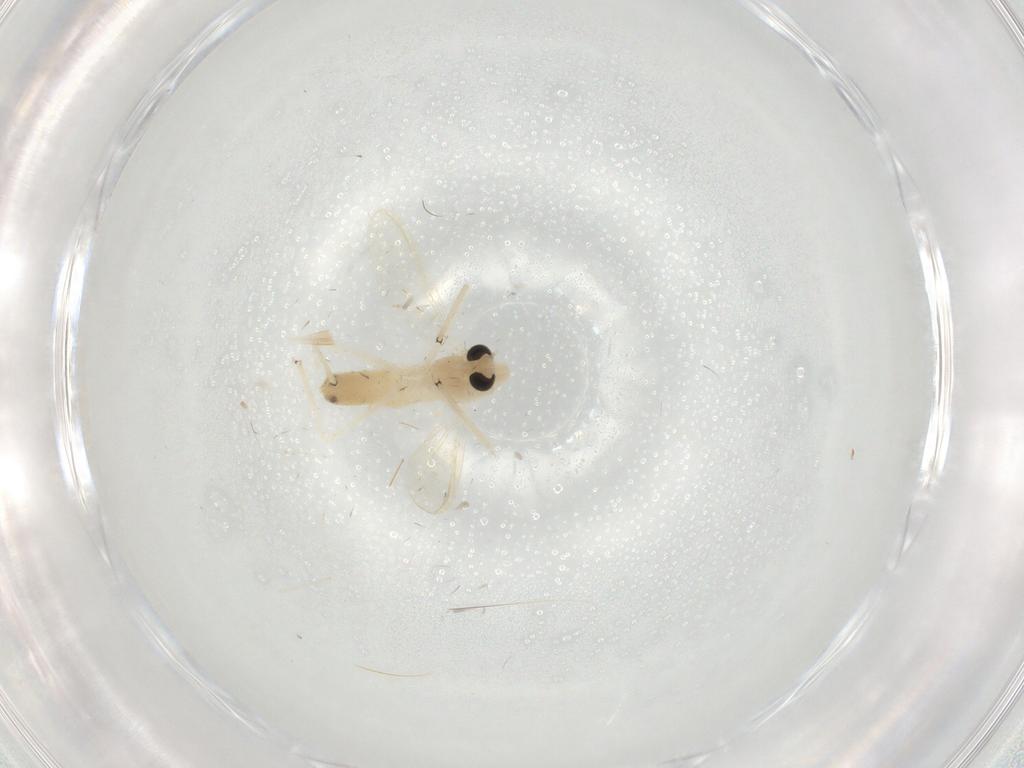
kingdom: Animalia
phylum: Arthropoda
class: Insecta
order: Diptera
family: Chironomidae
